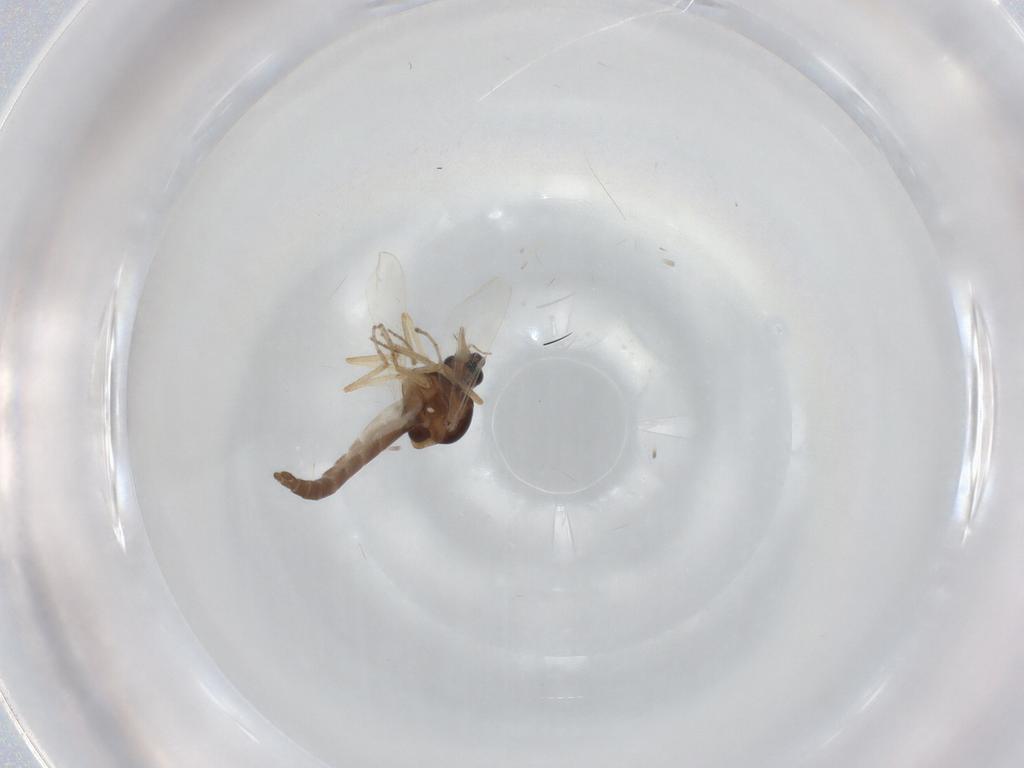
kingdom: Animalia
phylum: Arthropoda
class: Insecta
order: Diptera
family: Ceratopogonidae
